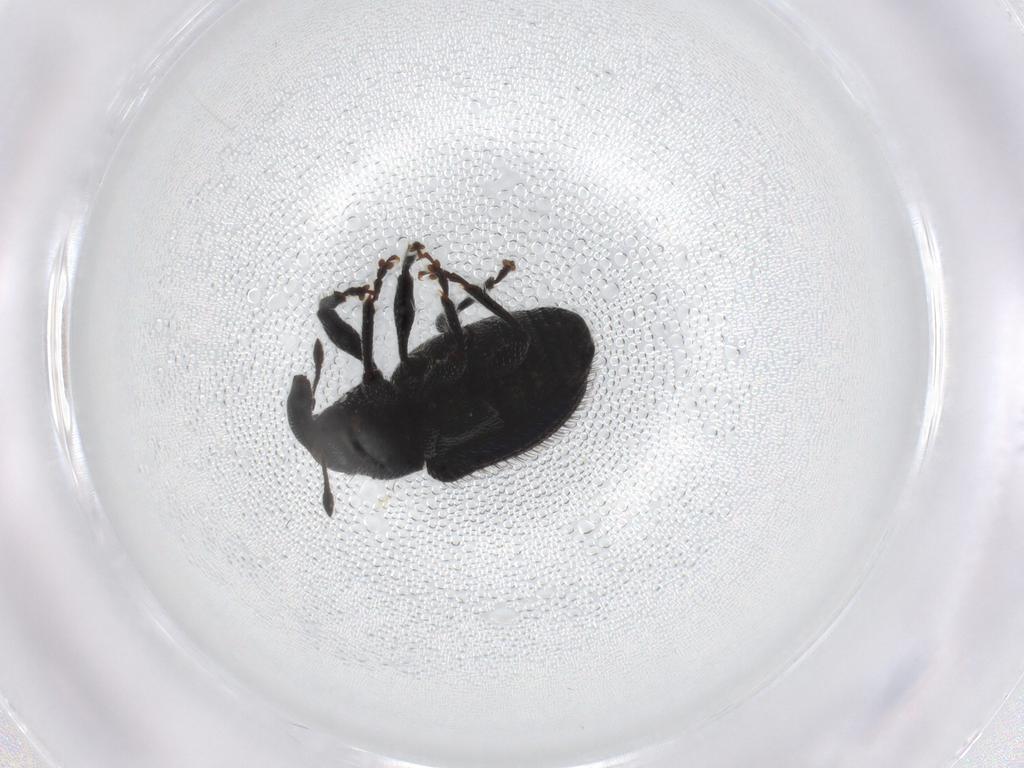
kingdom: Animalia
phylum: Arthropoda
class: Insecta
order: Coleoptera
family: Curculionidae
